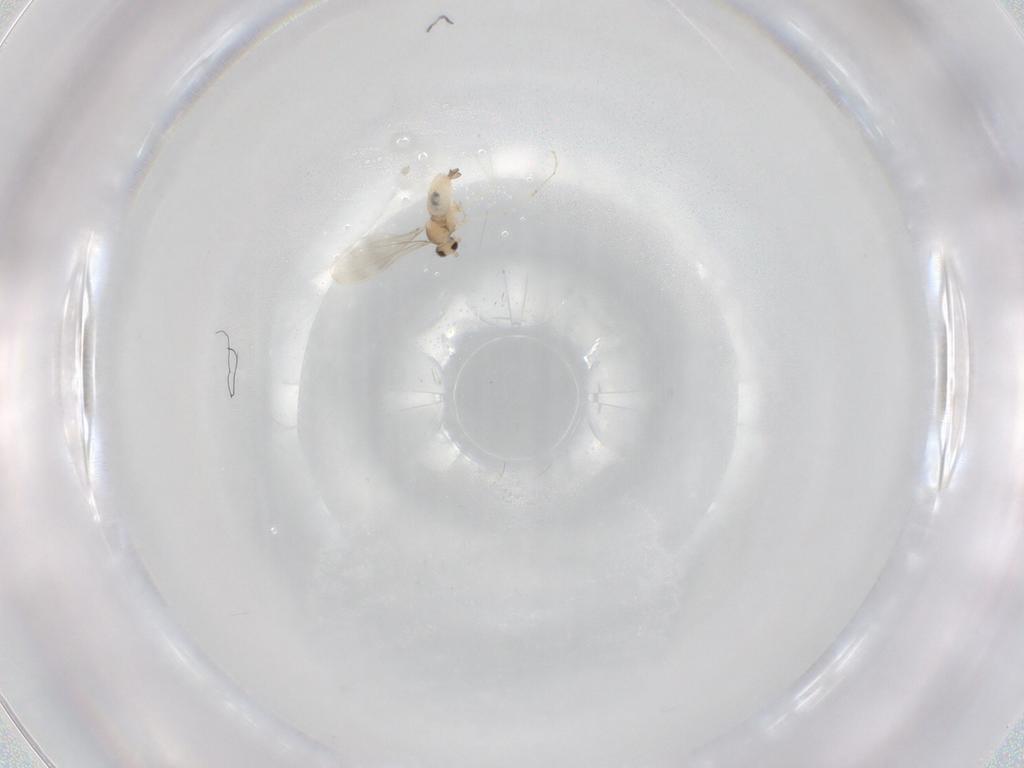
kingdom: Animalia
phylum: Arthropoda
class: Insecta
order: Diptera
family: Cecidomyiidae
